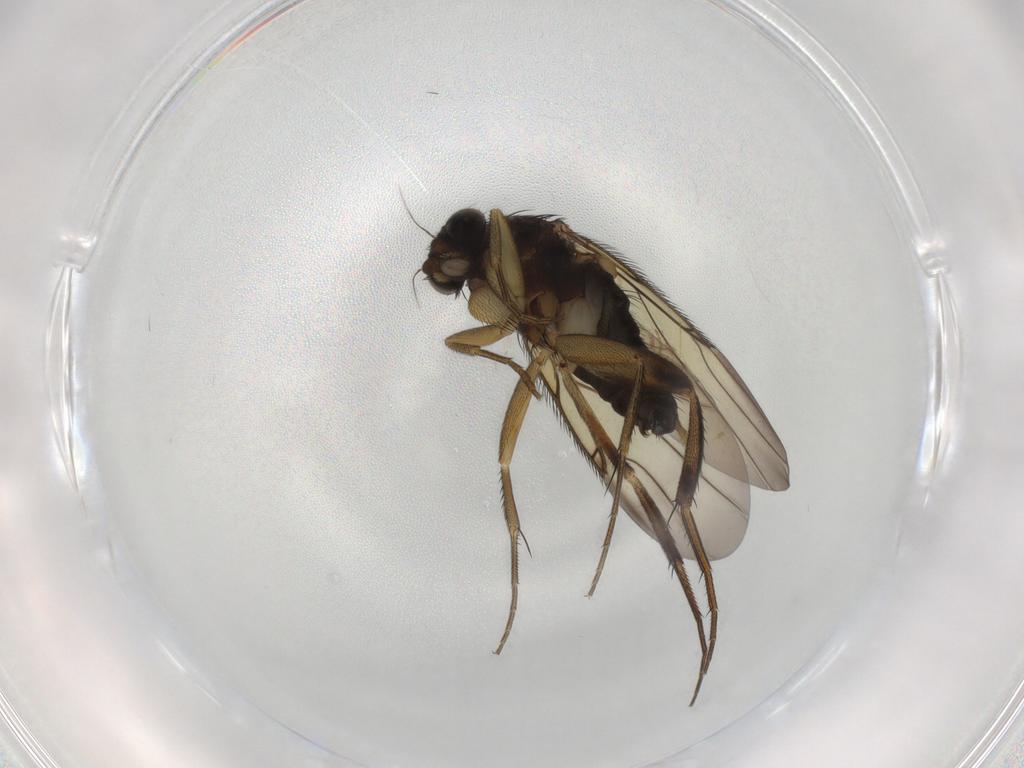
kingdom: Animalia
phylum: Arthropoda
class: Insecta
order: Diptera
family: Phoridae
